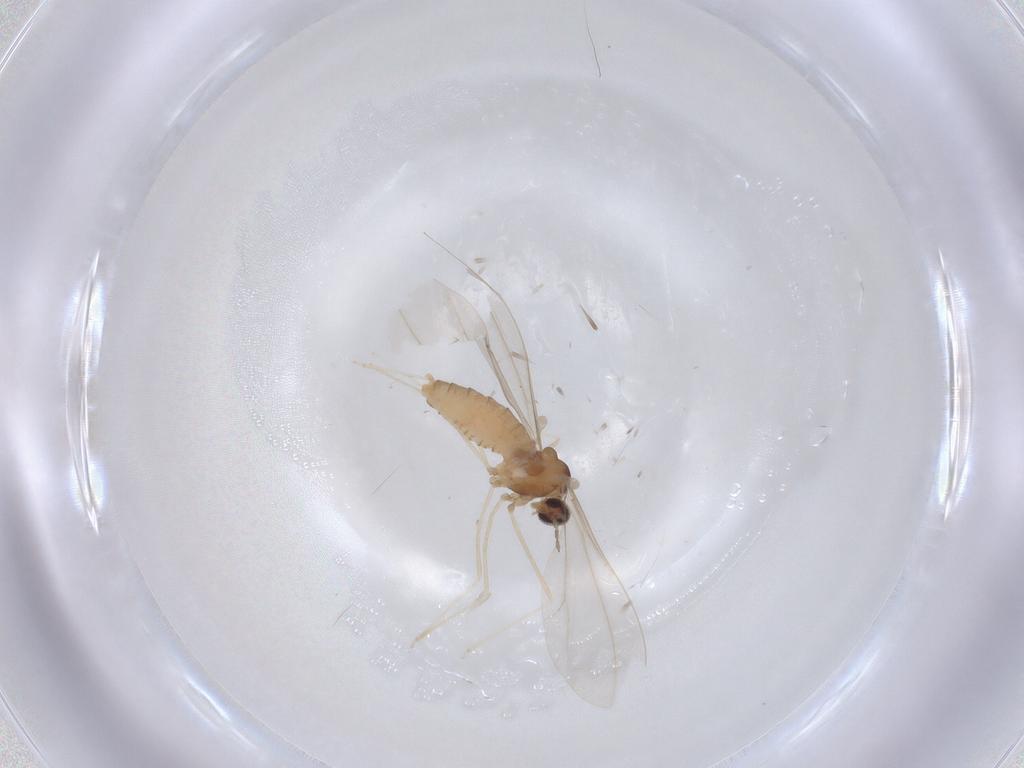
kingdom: Animalia
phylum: Arthropoda
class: Insecta
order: Diptera
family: Cecidomyiidae
